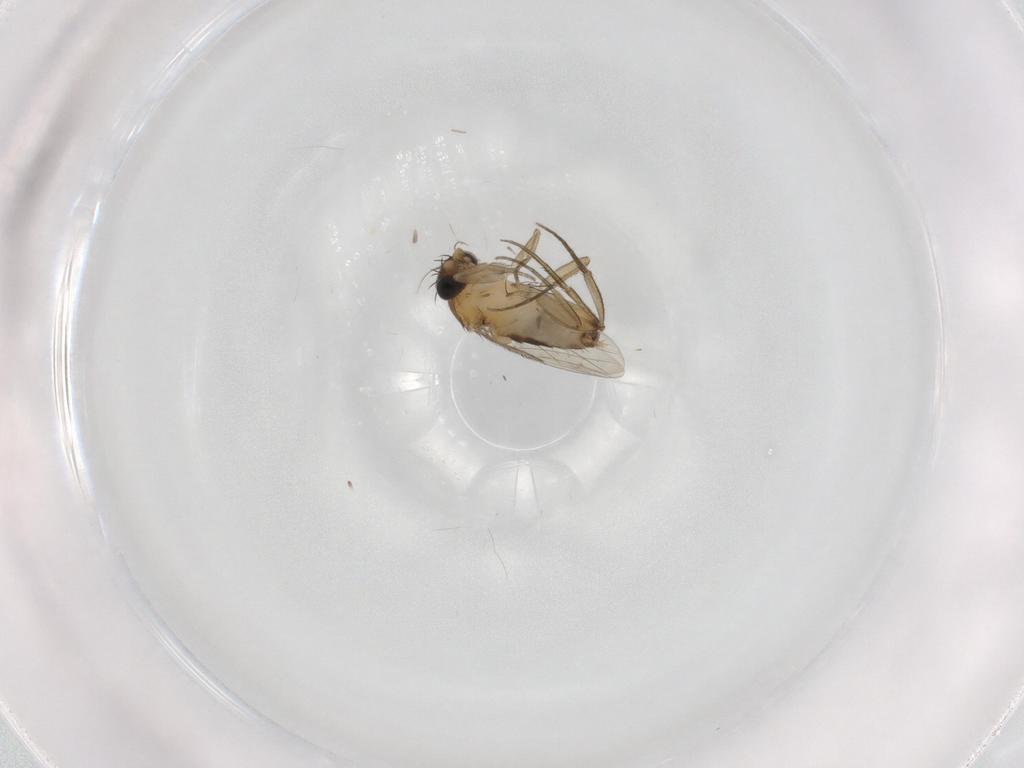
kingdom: Animalia
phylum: Arthropoda
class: Insecta
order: Diptera
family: Phoridae
